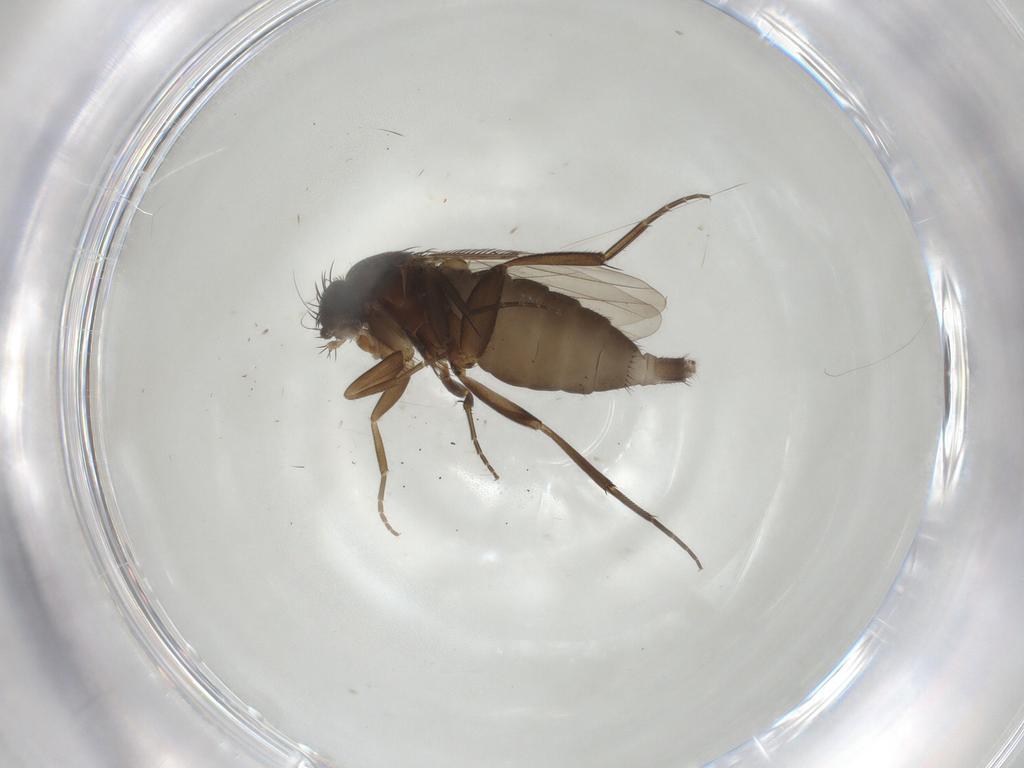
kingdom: Animalia
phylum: Arthropoda
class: Insecta
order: Diptera
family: Phoridae
